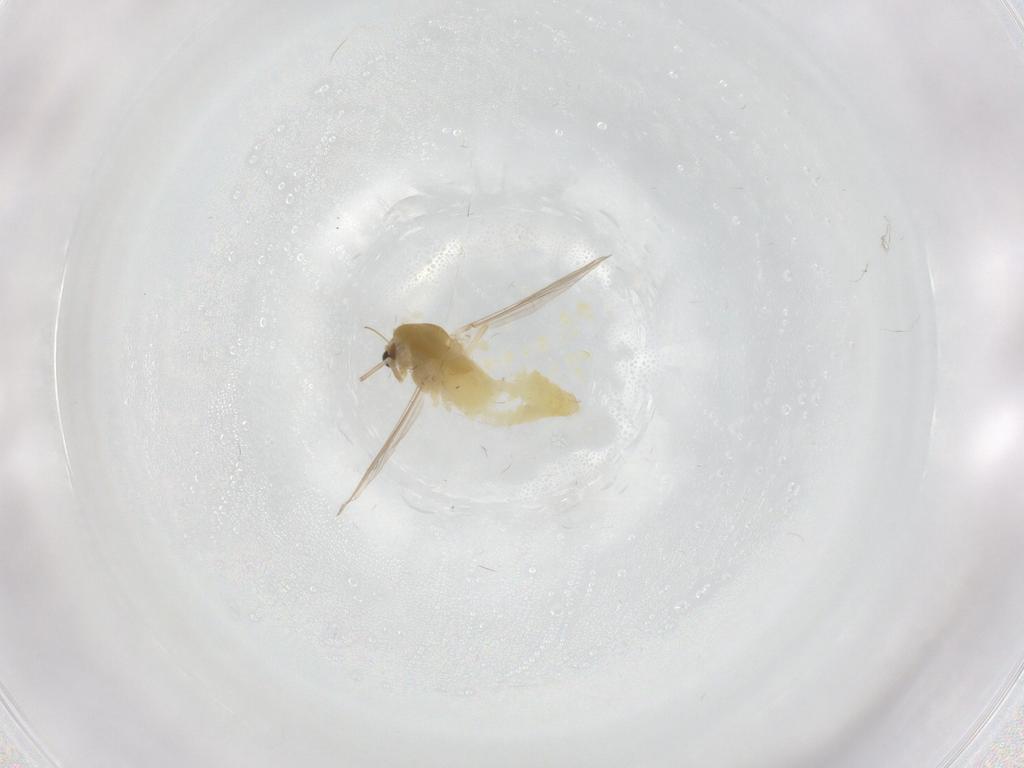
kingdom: Animalia
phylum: Arthropoda
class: Insecta
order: Diptera
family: Chironomidae
